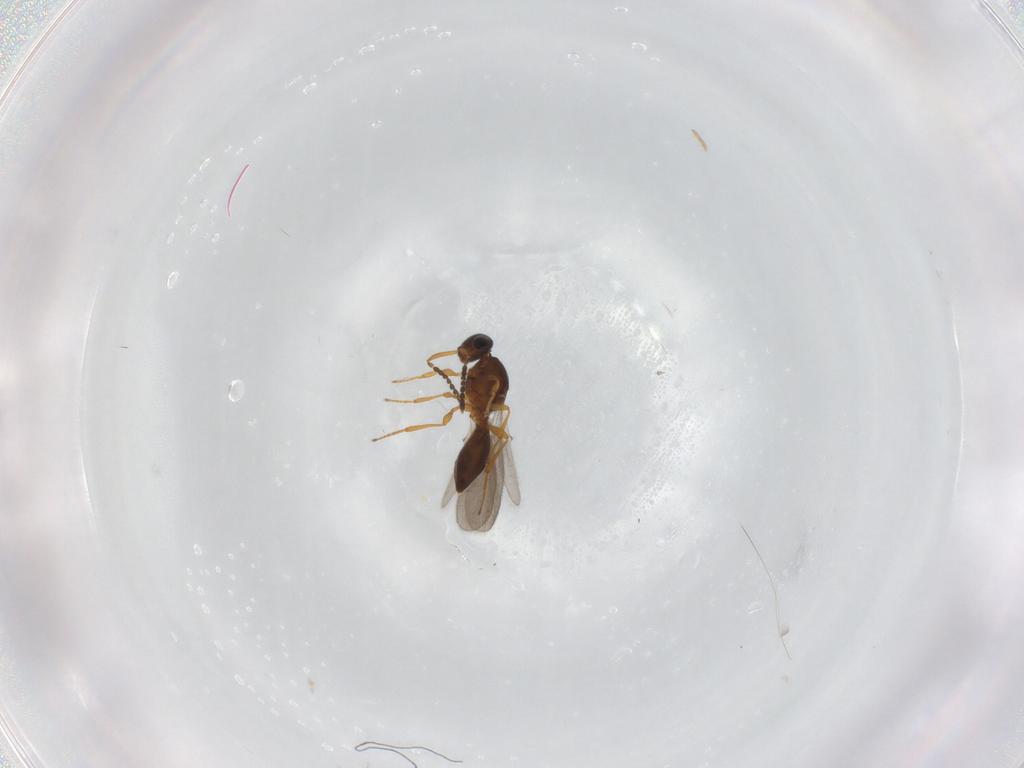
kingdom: Animalia
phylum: Arthropoda
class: Insecta
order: Hymenoptera
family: Platygastridae
